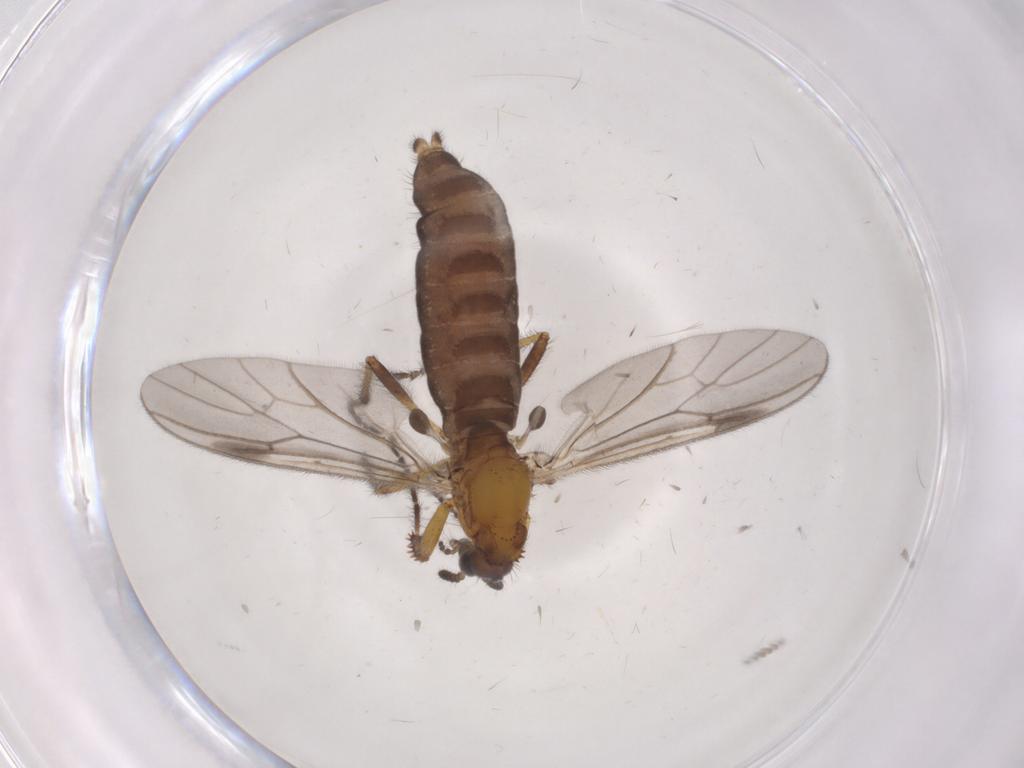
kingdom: Animalia
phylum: Arthropoda
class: Insecta
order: Diptera
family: Bibionidae
